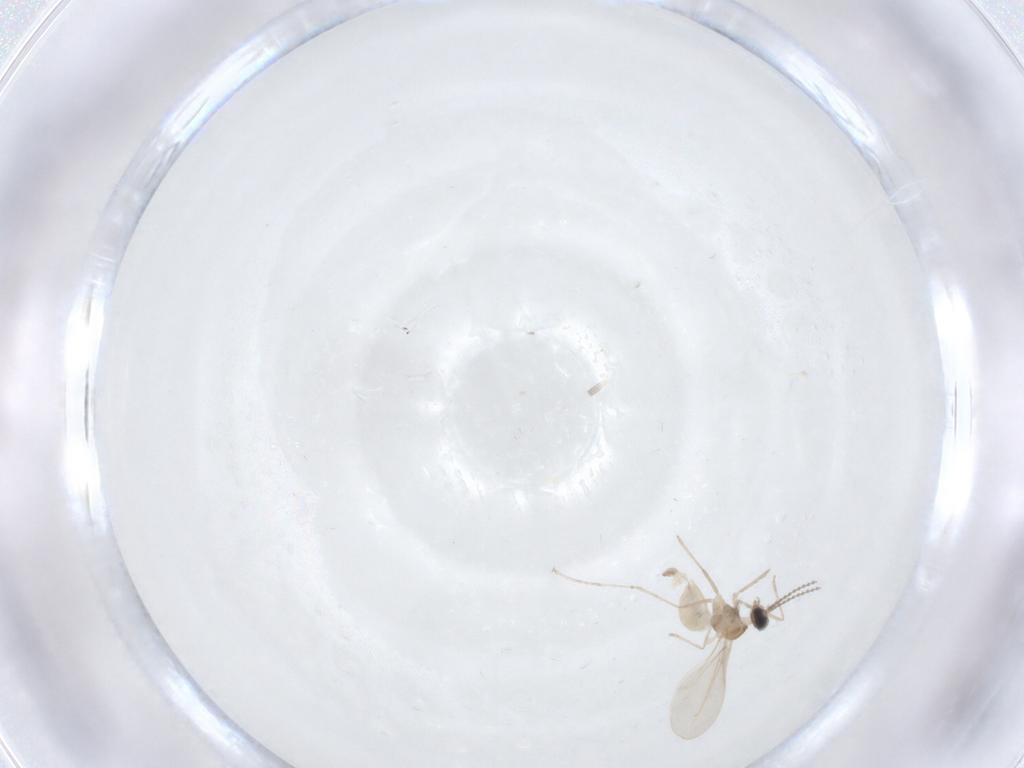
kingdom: Animalia
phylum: Arthropoda
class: Insecta
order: Diptera
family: Cecidomyiidae
